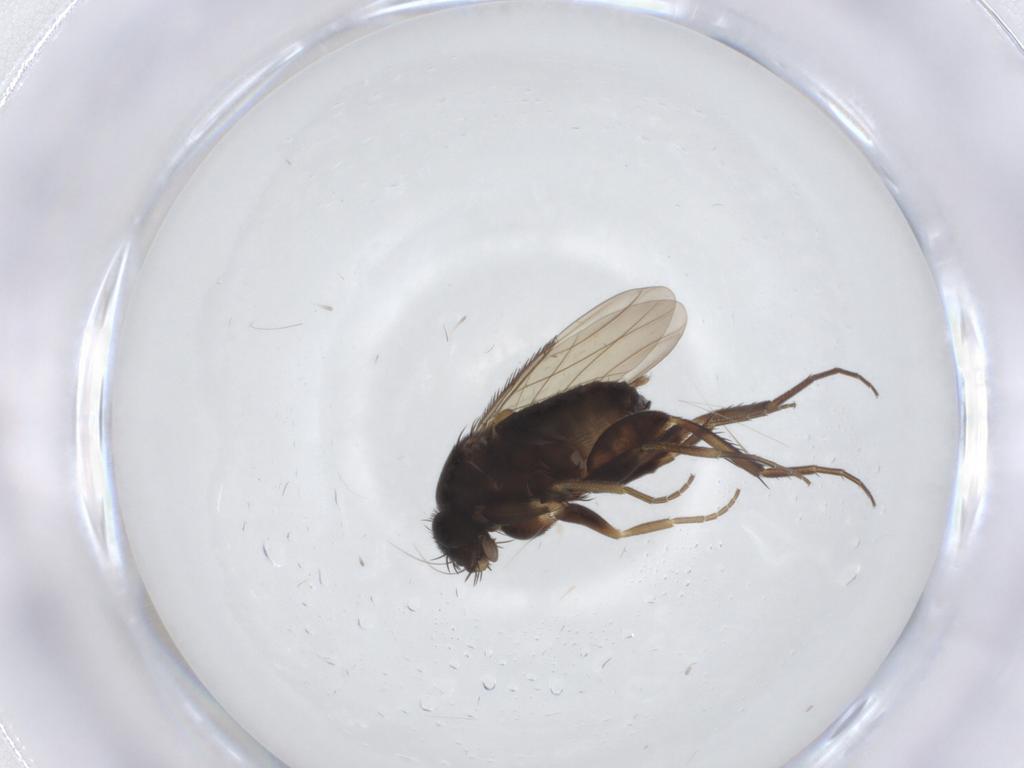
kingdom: Animalia
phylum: Arthropoda
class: Insecta
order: Diptera
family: Phoridae
